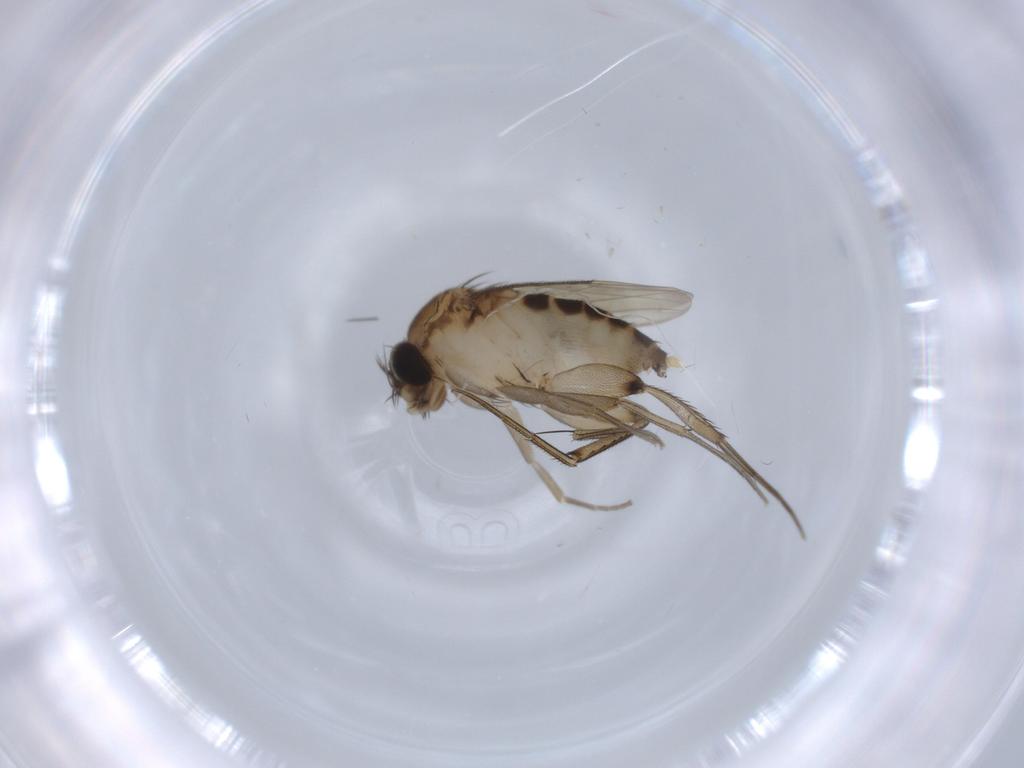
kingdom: Animalia
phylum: Arthropoda
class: Insecta
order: Diptera
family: Phoridae
